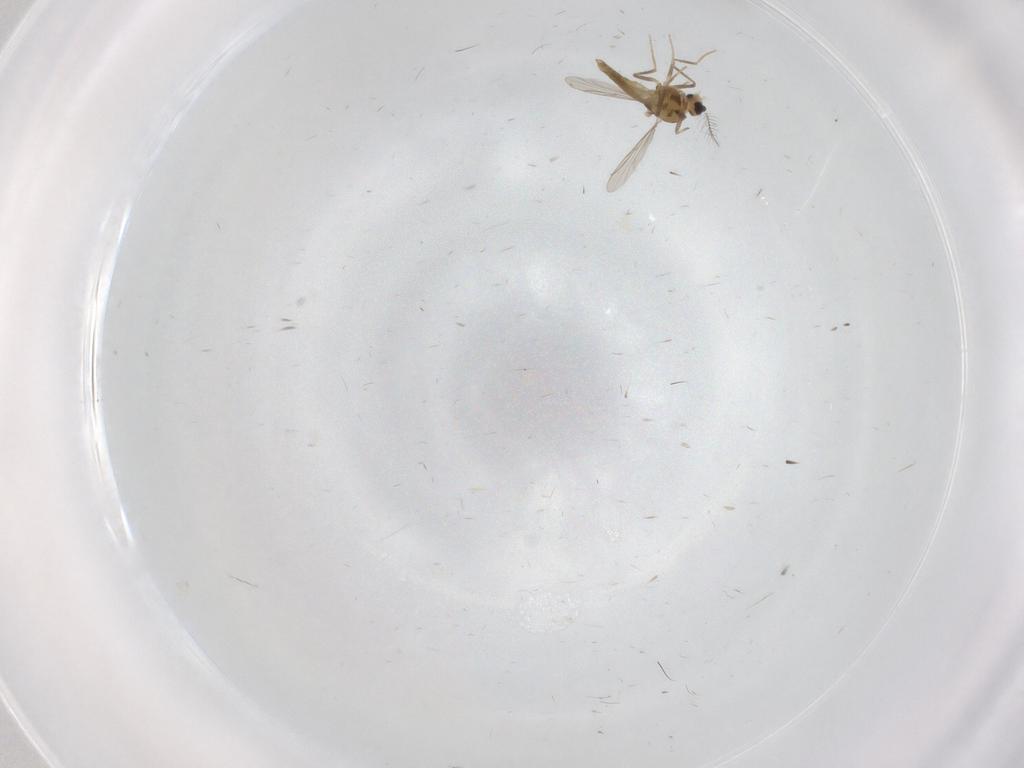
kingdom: Animalia
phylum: Arthropoda
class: Insecta
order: Diptera
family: Chironomidae
